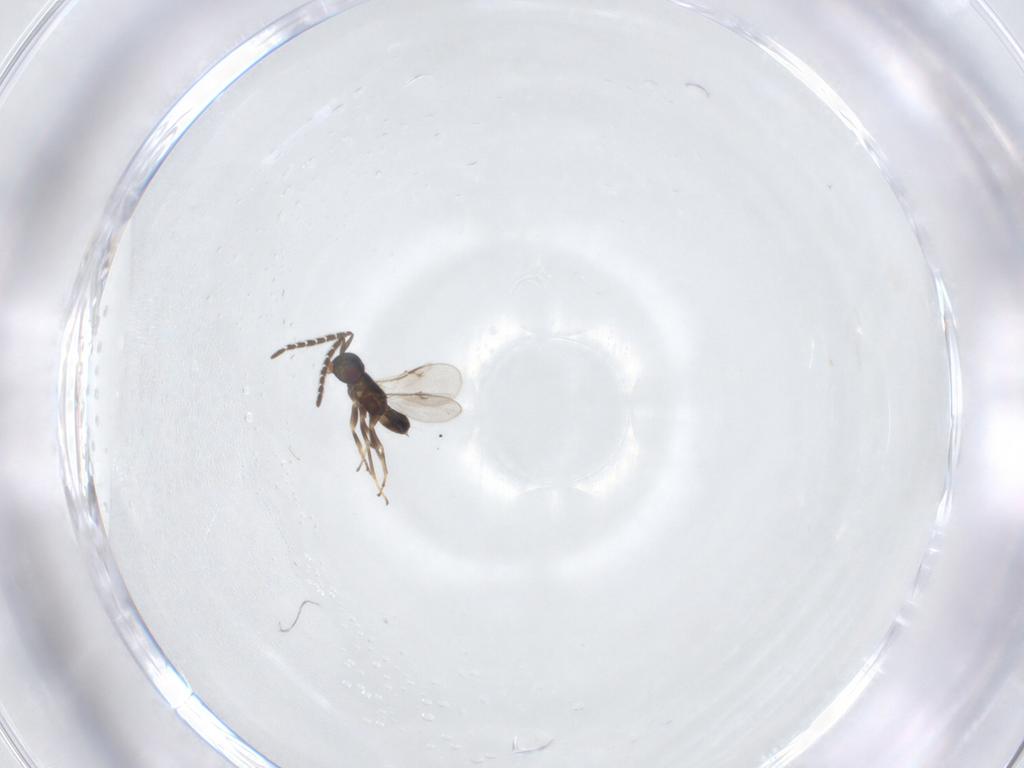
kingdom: Animalia
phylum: Arthropoda
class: Insecta
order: Hymenoptera
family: Encyrtidae
